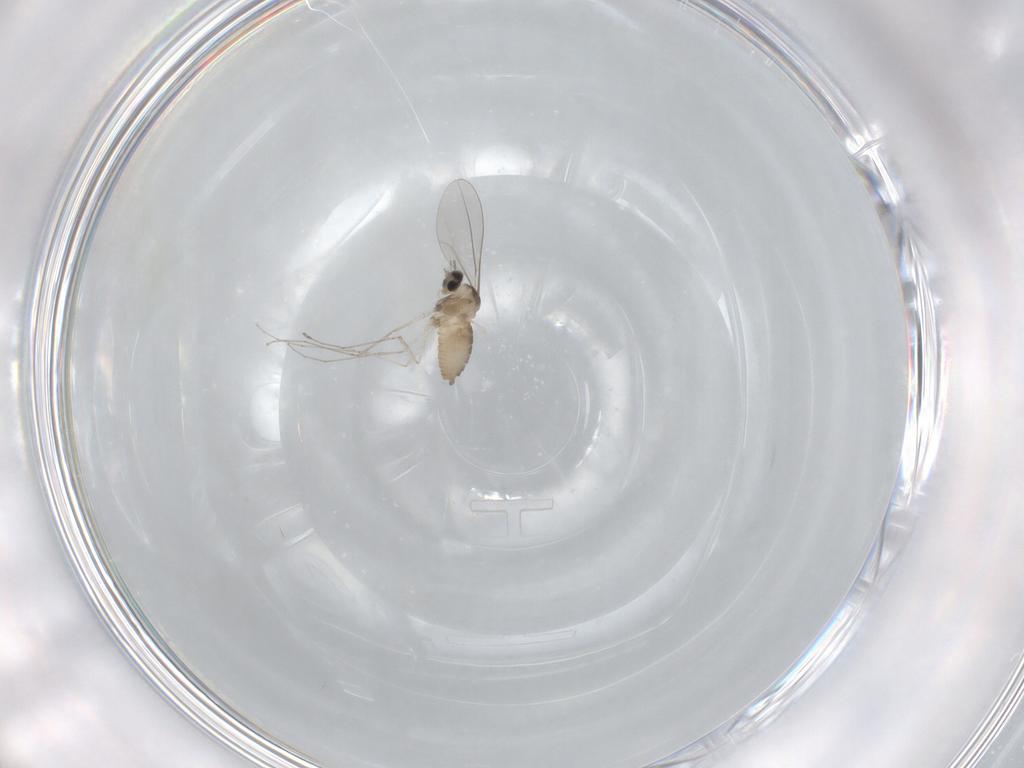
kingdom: Animalia
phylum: Arthropoda
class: Insecta
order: Diptera
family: Cecidomyiidae
